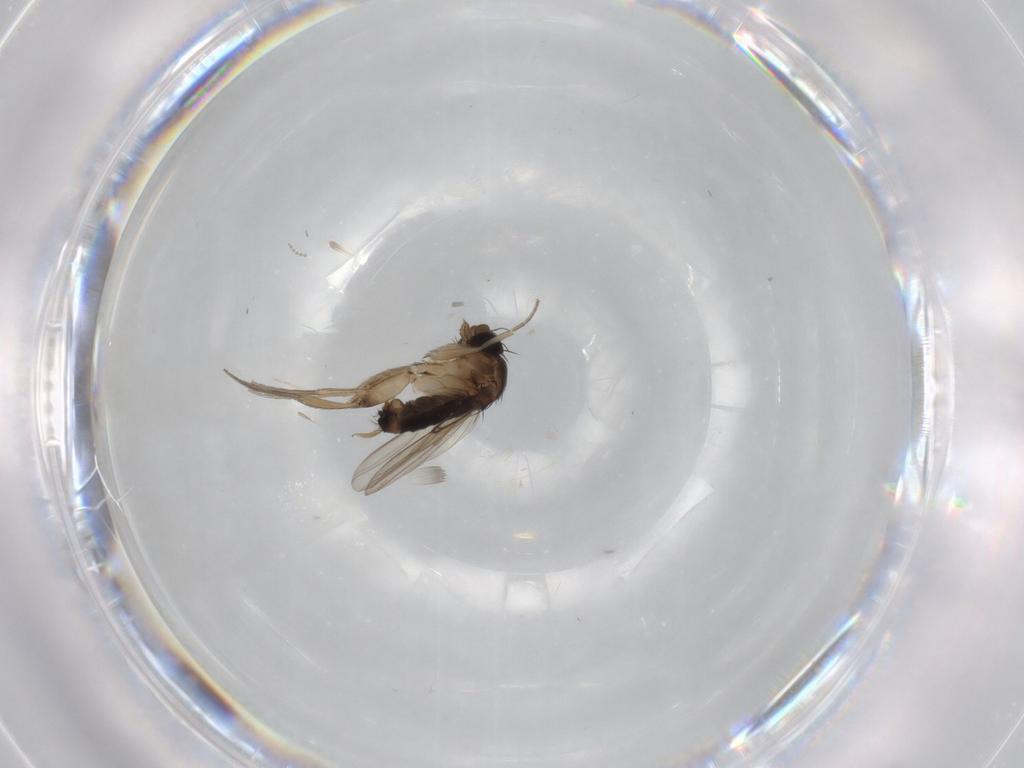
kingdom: Animalia
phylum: Arthropoda
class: Insecta
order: Diptera
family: Phoridae
